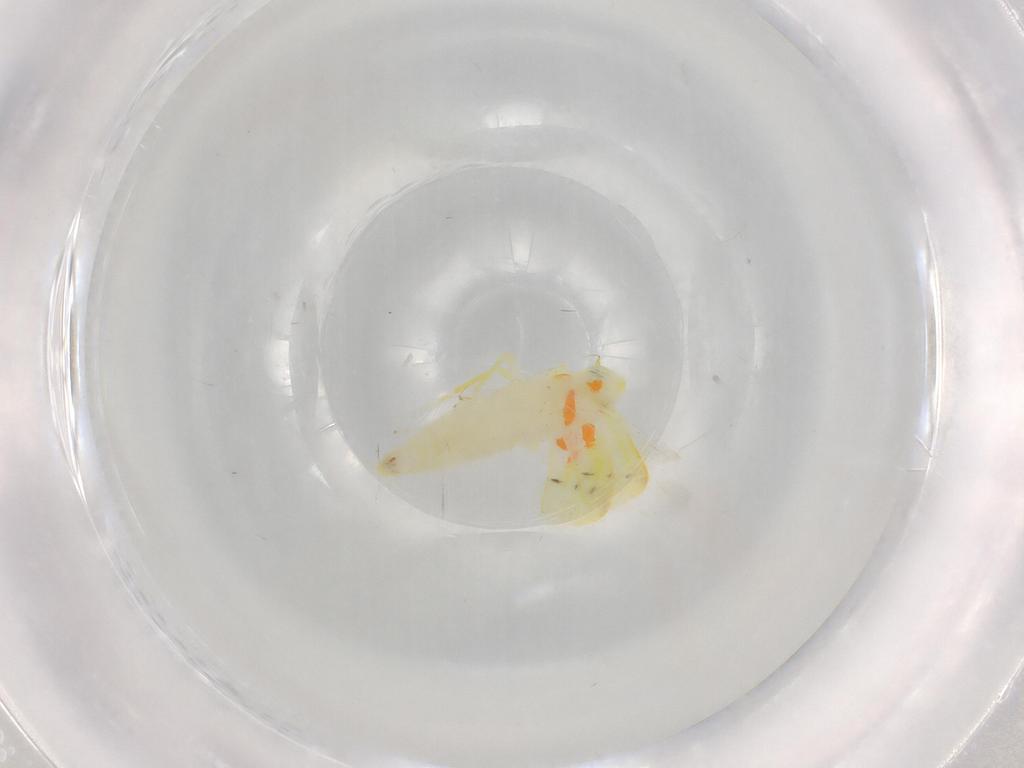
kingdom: Animalia
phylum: Arthropoda
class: Insecta
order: Hemiptera
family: Cicadellidae
